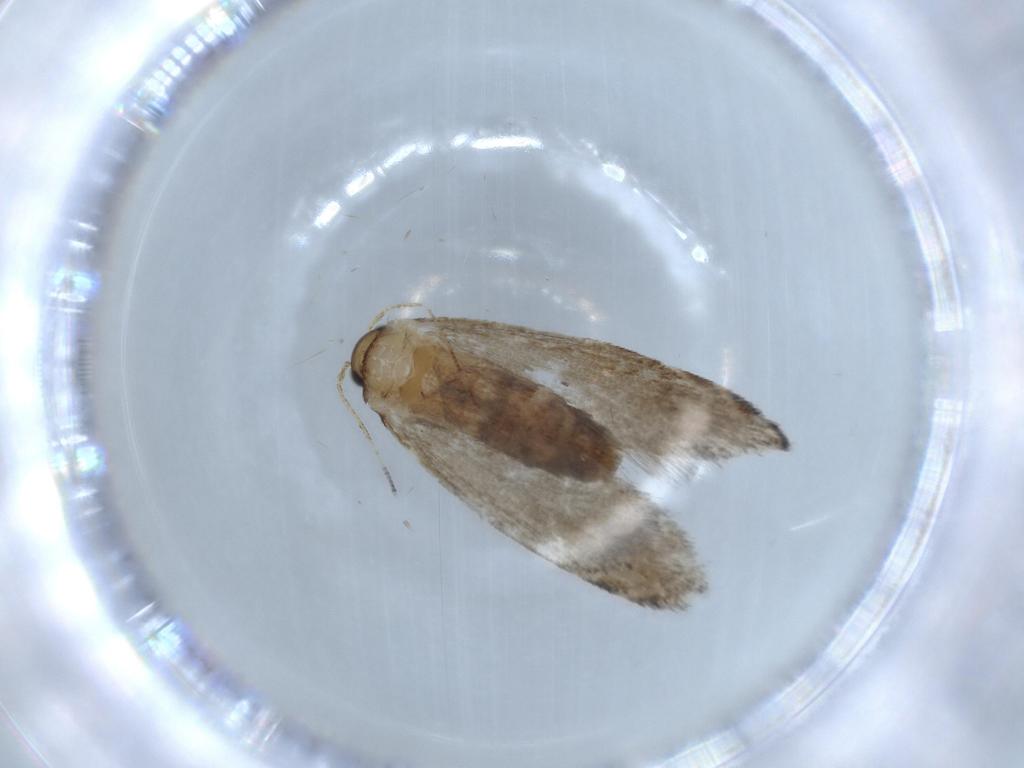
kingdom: Animalia
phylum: Arthropoda
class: Insecta
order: Lepidoptera
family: Tineidae
